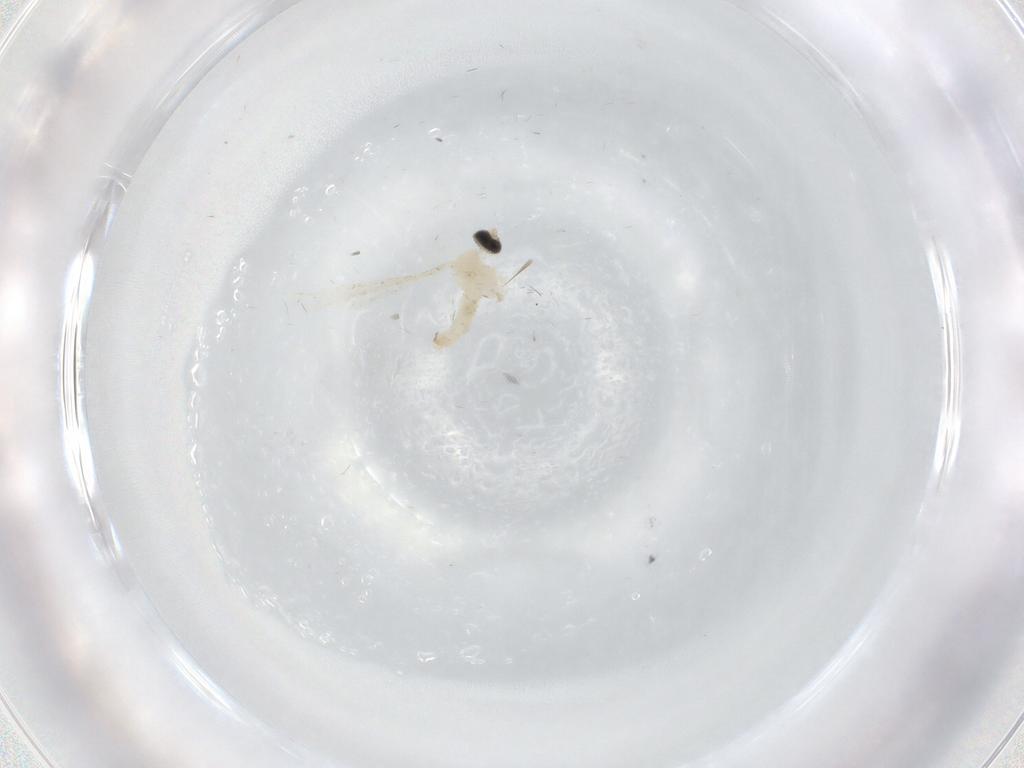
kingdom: Animalia
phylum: Arthropoda
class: Insecta
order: Diptera
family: Cecidomyiidae
